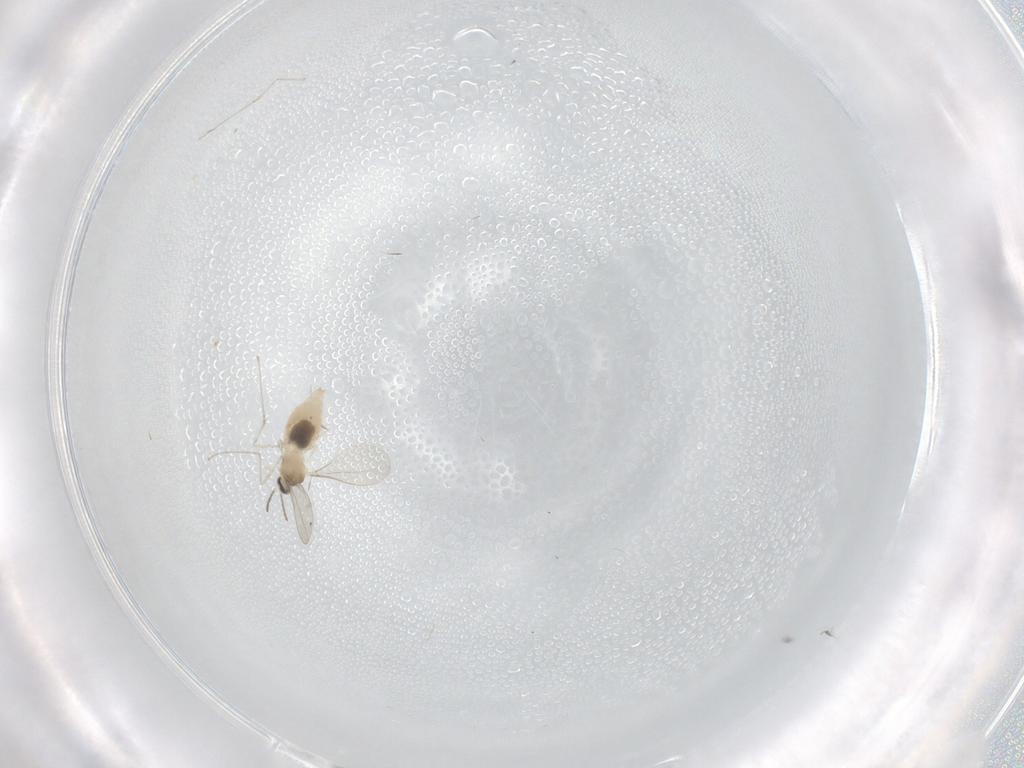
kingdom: Animalia
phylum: Arthropoda
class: Insecta
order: Diptera
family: Cecidomyiidae
